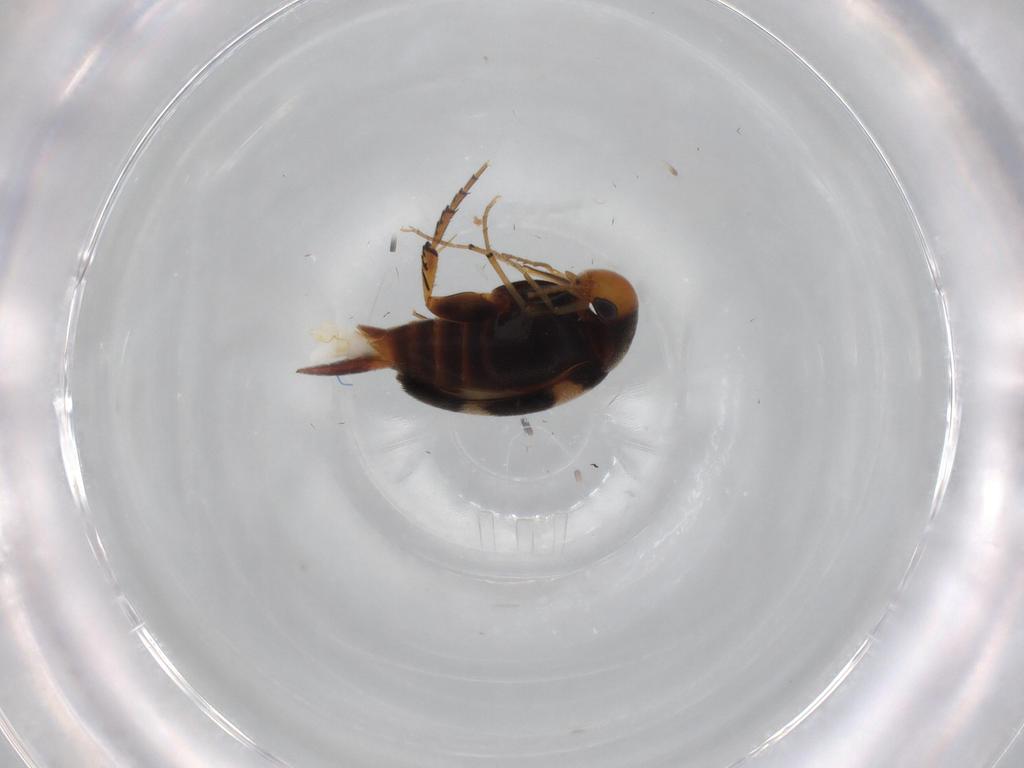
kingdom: Animalia
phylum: Arthropoda
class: Insecta
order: Coleoptera
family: Mordellidae
